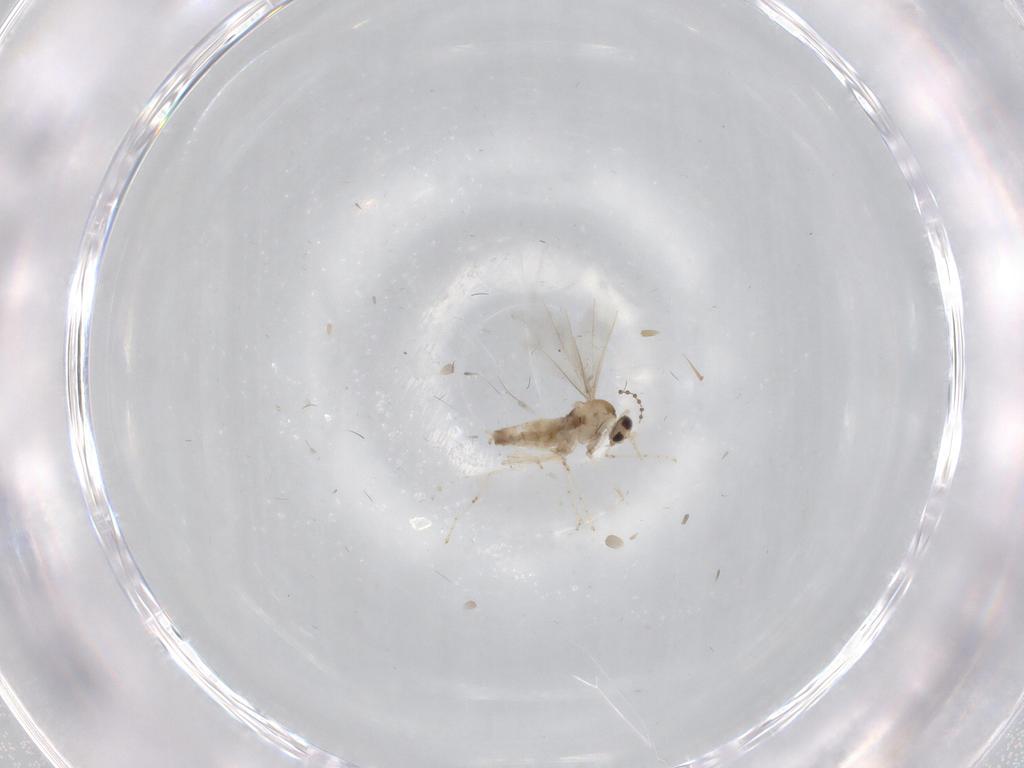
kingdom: Animalia
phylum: Arthropoda
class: Insecta
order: Diptera
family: Cecidomyiidae
